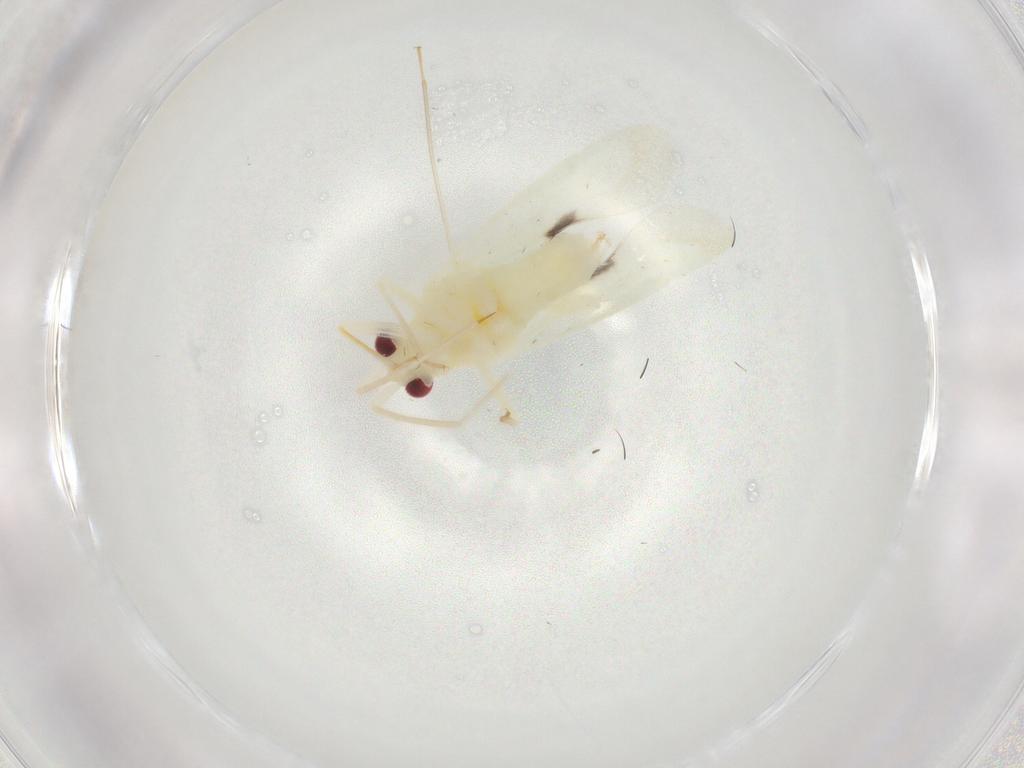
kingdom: Animalia
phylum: Arthropoda
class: Insecta
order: Hemiptera
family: Miridae
